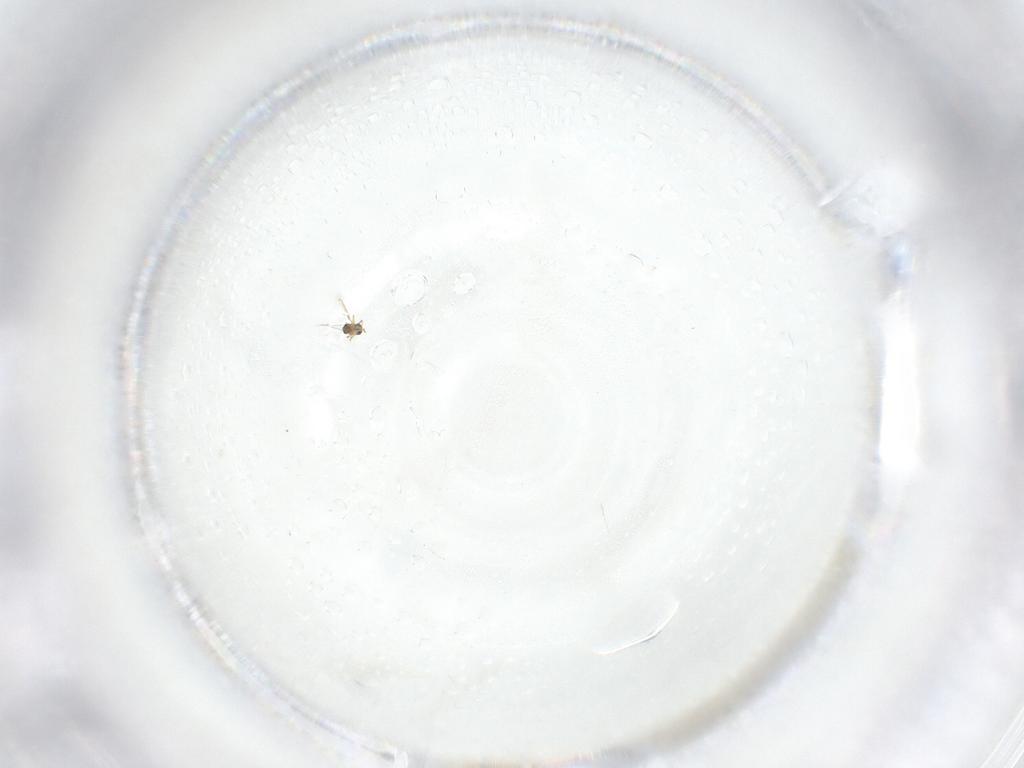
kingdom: Animalia
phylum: Arthropoda
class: Insecta
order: Hymenoptera
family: Mymaridae
